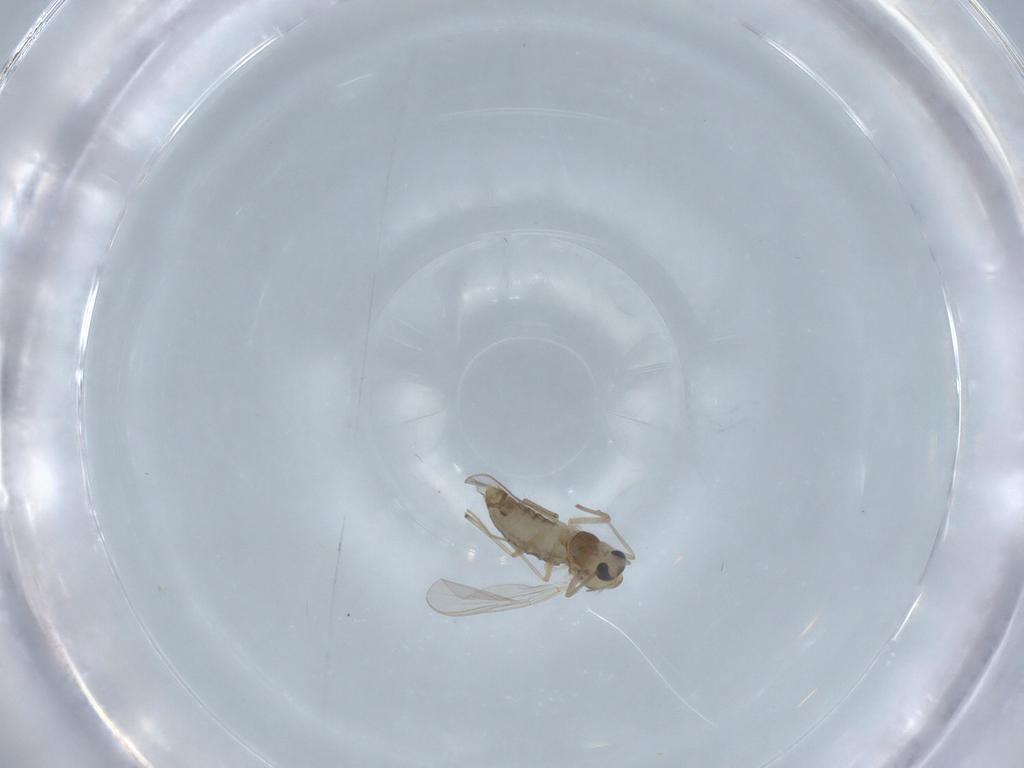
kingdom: Animalia
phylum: Arthropoda
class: Insecta
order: Diptera
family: Chironomidae
